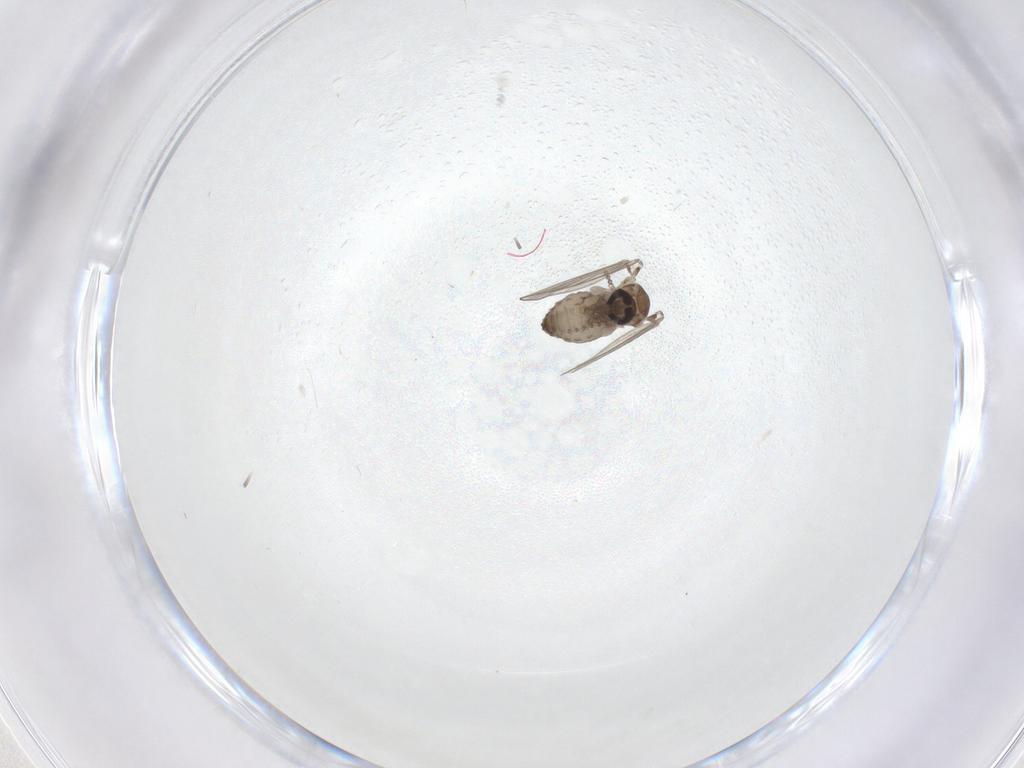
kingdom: Animalia
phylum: Arthropoda
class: Insecta
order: Diptera
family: Psychodidae
